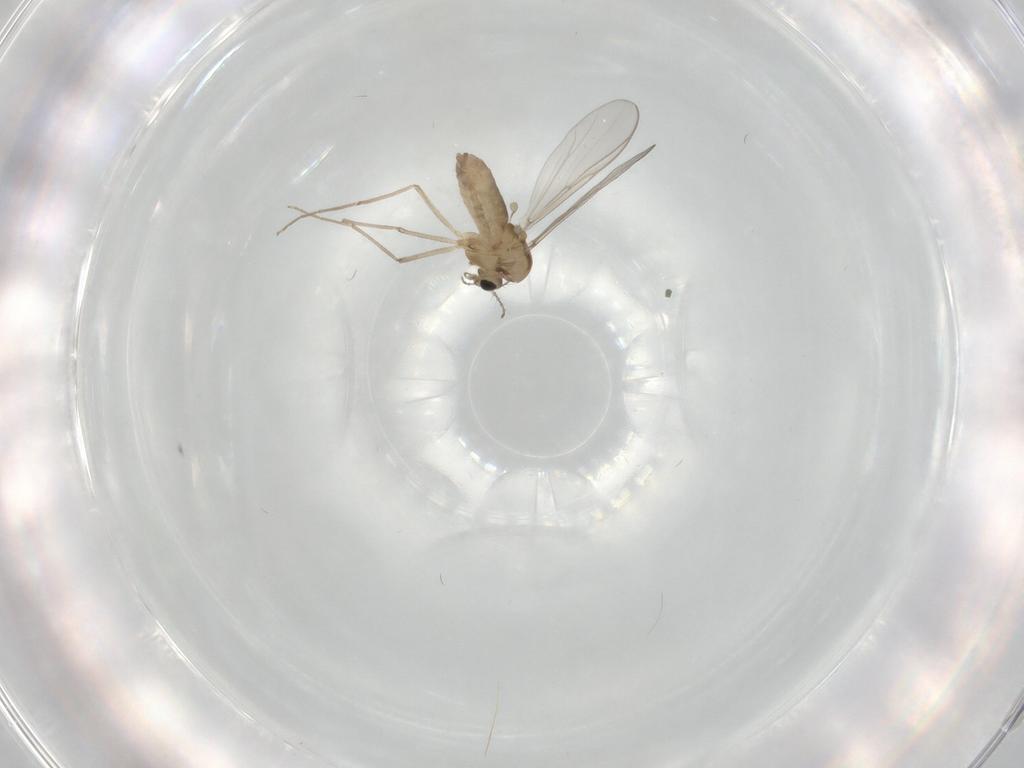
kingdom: Animalia
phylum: Arthropoda
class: Insecta
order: Diptera
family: Chironomidae
